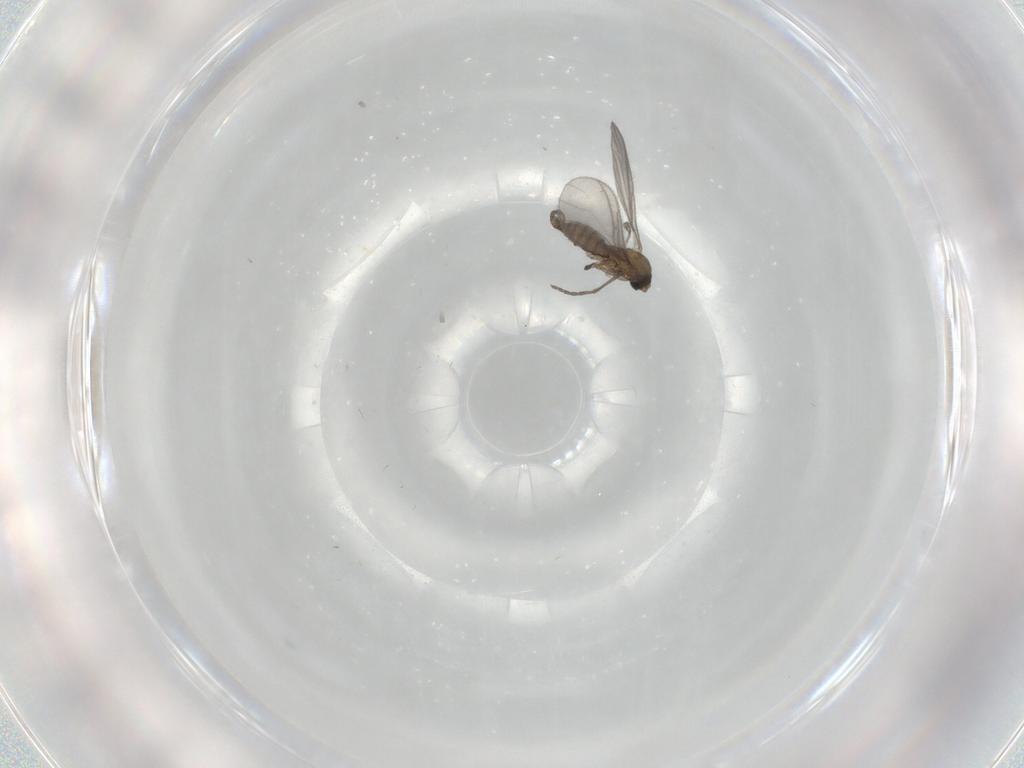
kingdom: Animalia
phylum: Arthropoda
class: Insecta
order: Diptera
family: Sciaridae
